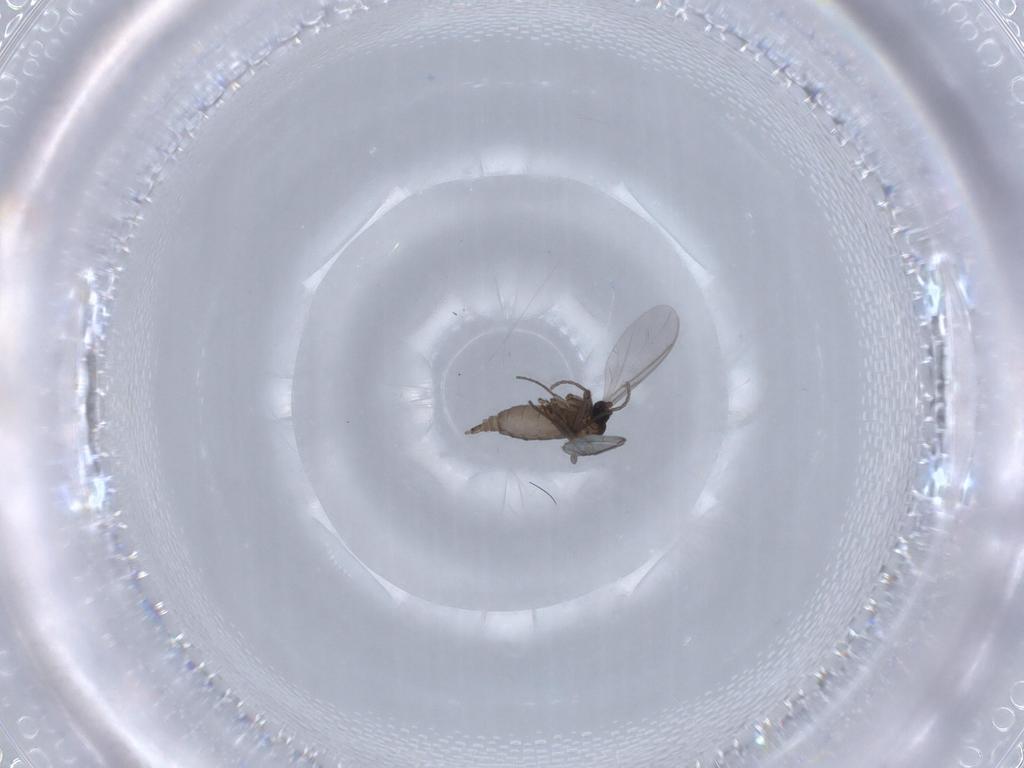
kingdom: Animalia
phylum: Arthropoda
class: Insecta
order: Diptera
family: Sciaridae
